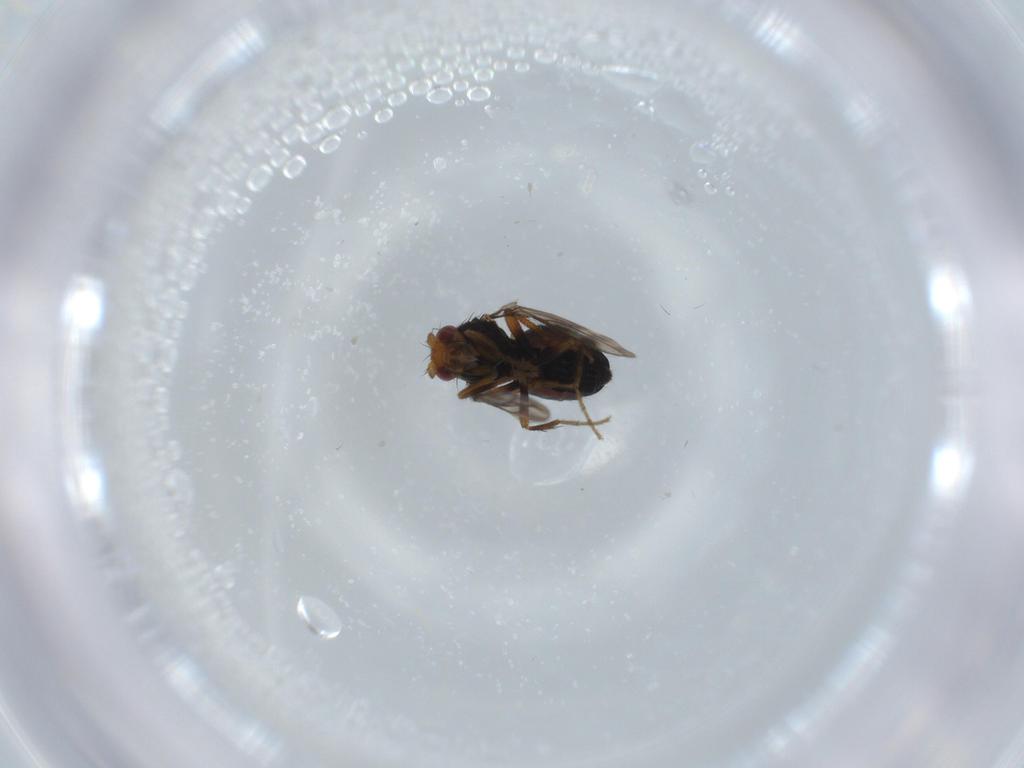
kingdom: Animalia
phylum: Arthropoda
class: Insecta
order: Diptera
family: Sphaeroceridae
